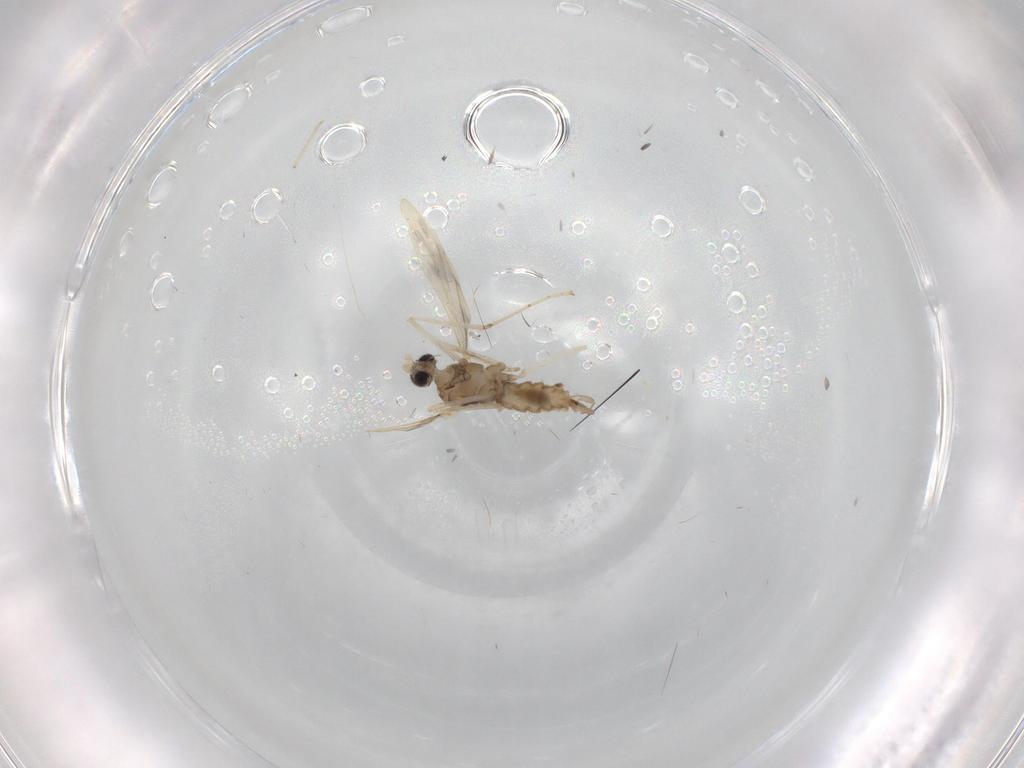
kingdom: Animalia
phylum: Arthropoda
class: Insecta
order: Diptera
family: Cecidomyiidae
